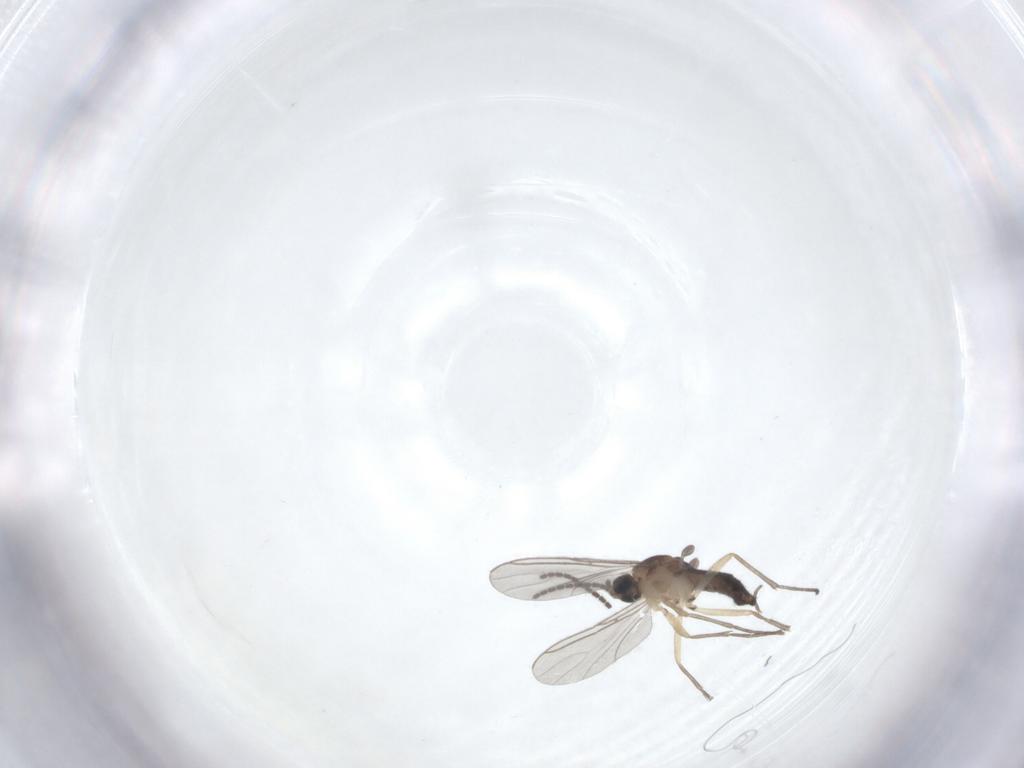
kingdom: Animalia
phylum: Arthropoda
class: Insecta
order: Diptera
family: Sciaridae
